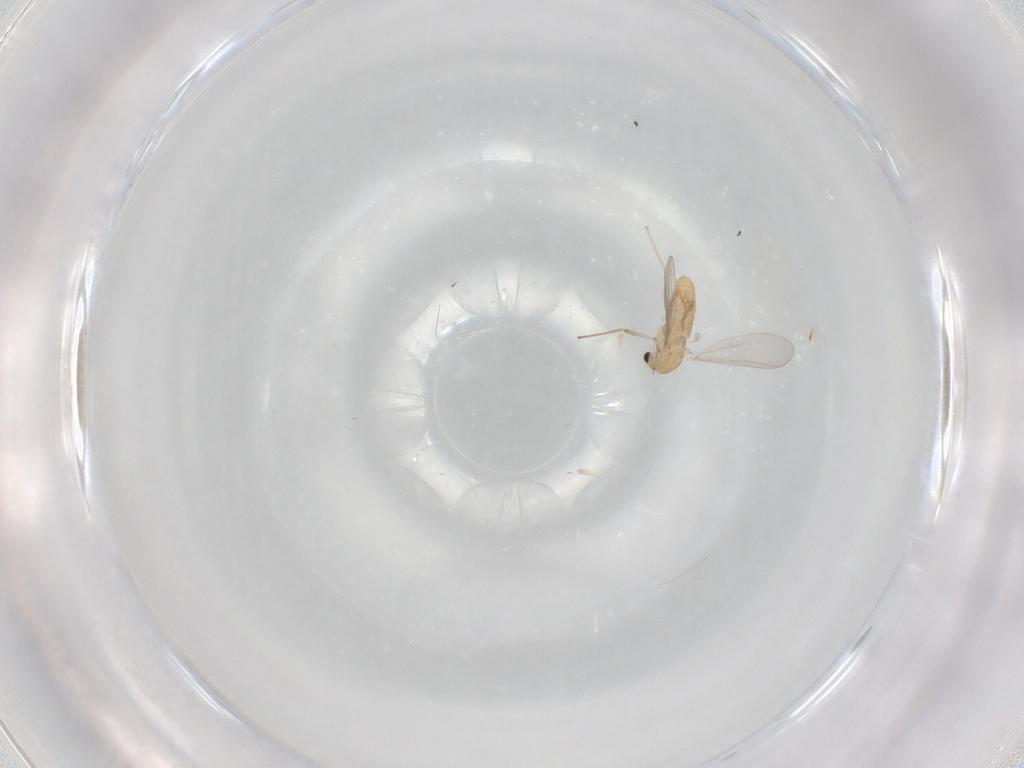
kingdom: Animalia
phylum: Arthropoda
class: Insecta
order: Diptera
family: Chironomidae
